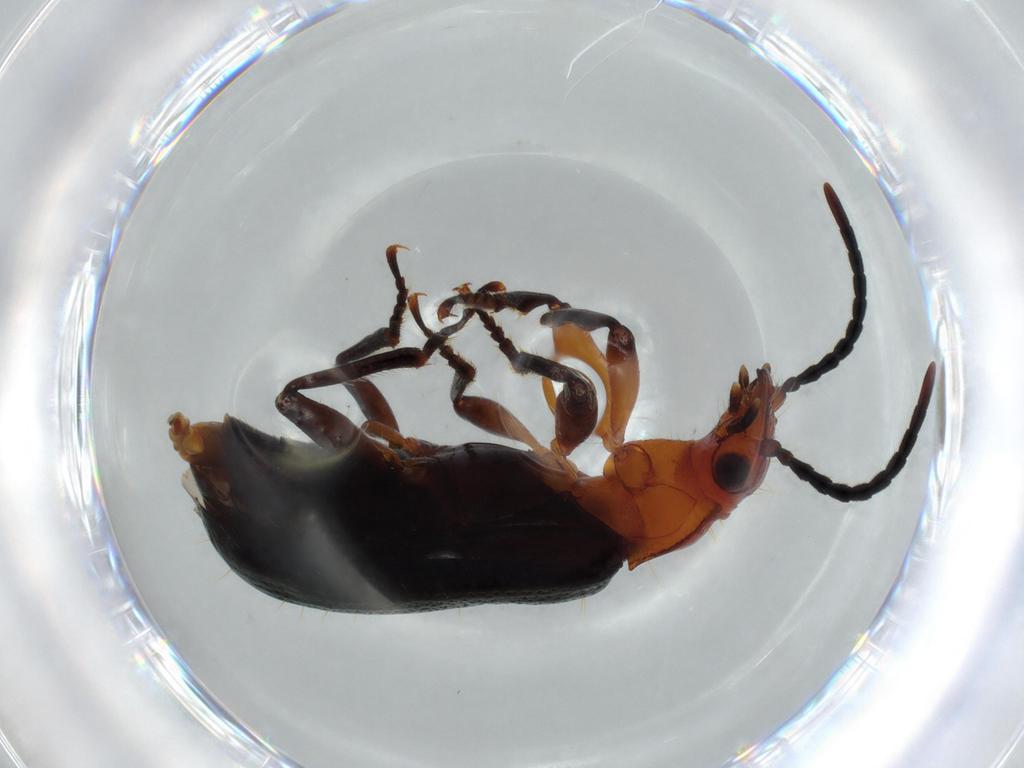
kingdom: Animalia
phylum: Arthropoda
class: Insecta
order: Coleoptera
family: Carabidae
